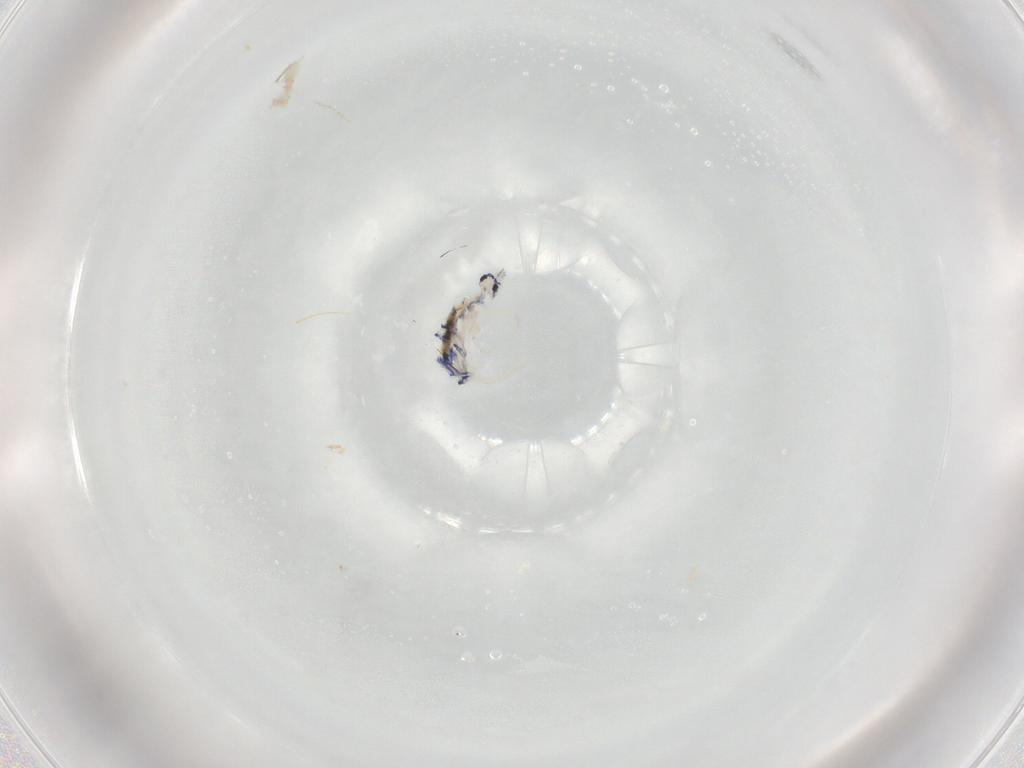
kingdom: Animalia
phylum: Arthropoda
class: Collembola
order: Entomobryomorpha
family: Entomobryidae
